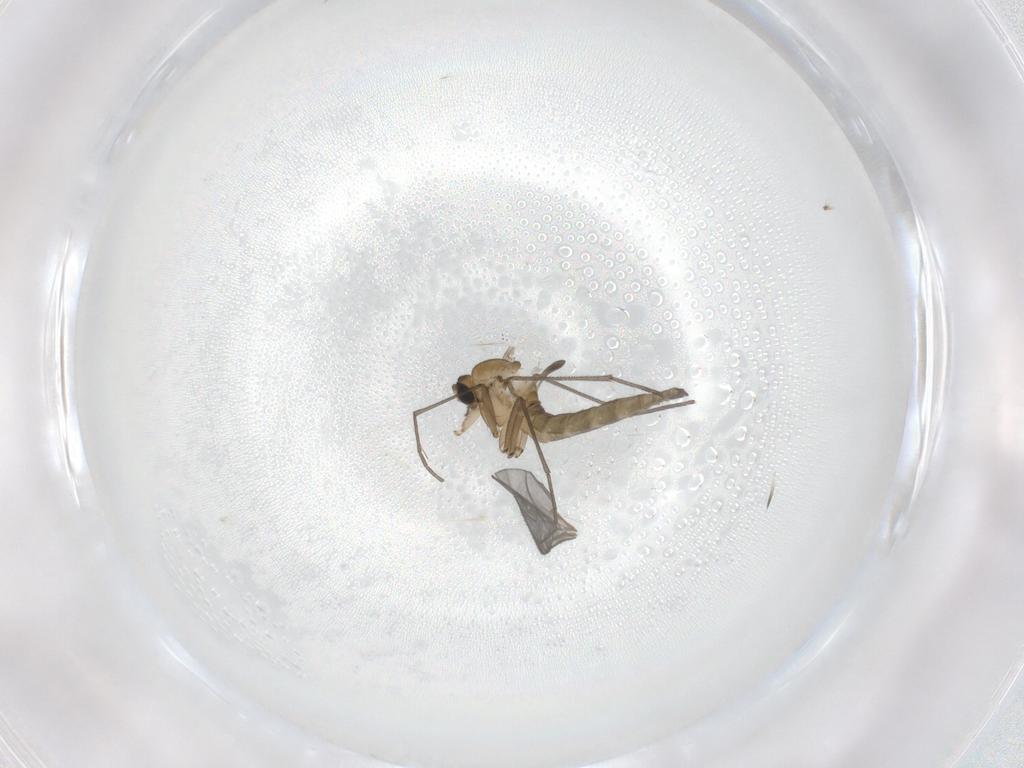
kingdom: Animalia
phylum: Arthropoda
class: Insecta
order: Diptera
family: Sciaridae
